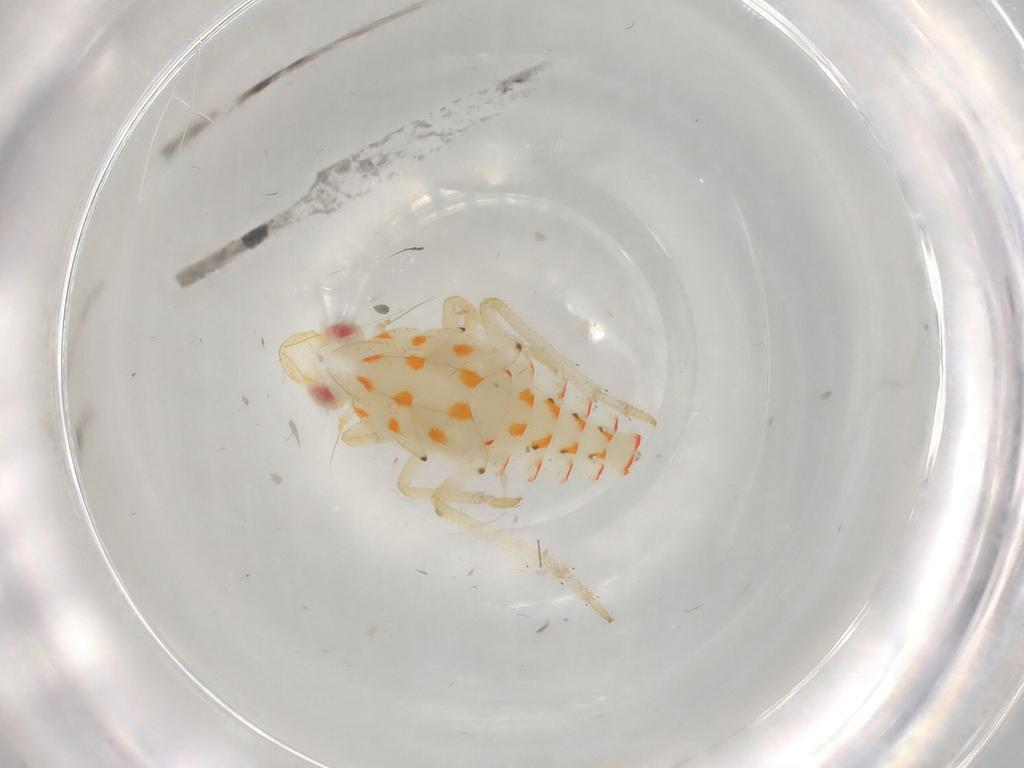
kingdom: Animalia
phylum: Arthropoda
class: Insecta
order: Hemiptera
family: Tropiduchidae
